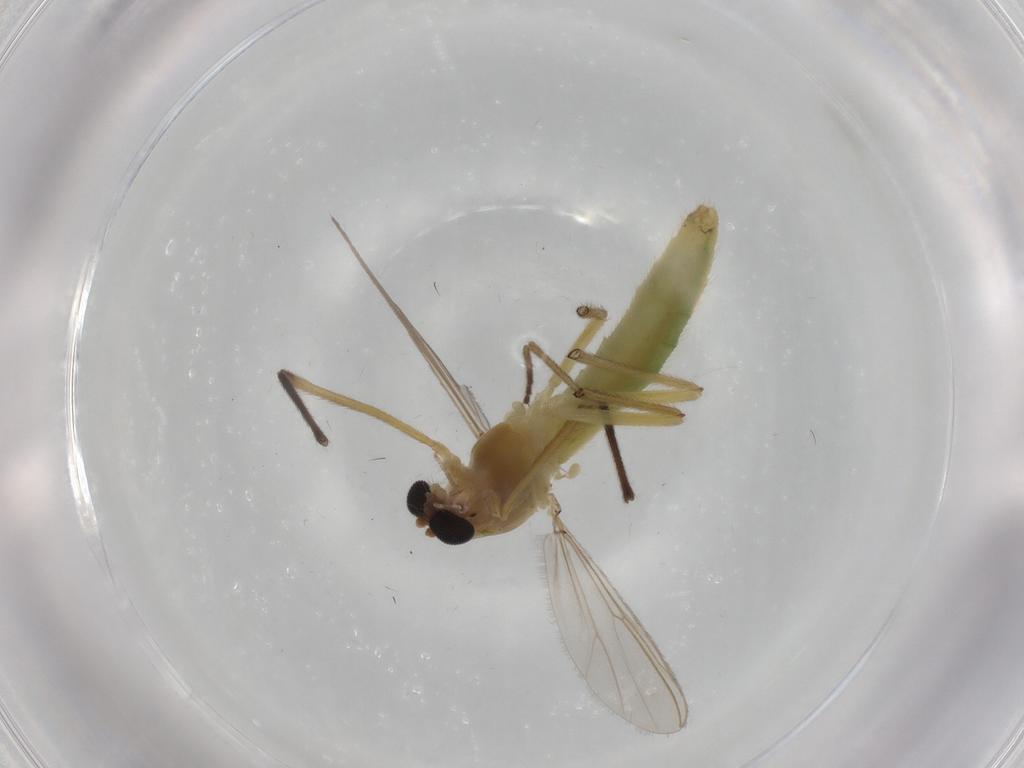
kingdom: Animalia
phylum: Arthropoda
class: Insecta
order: Diptera
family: Chironomidae
